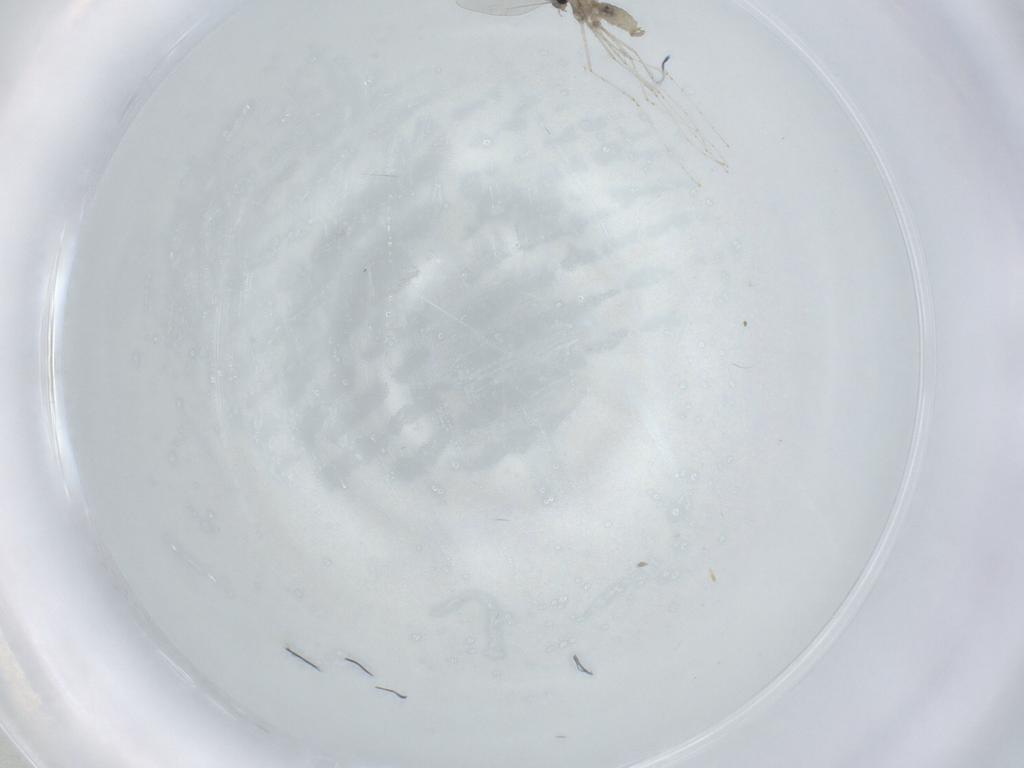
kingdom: Animalia
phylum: Arthropoda
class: Insecta
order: Diptera
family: Cecidomyiidae
